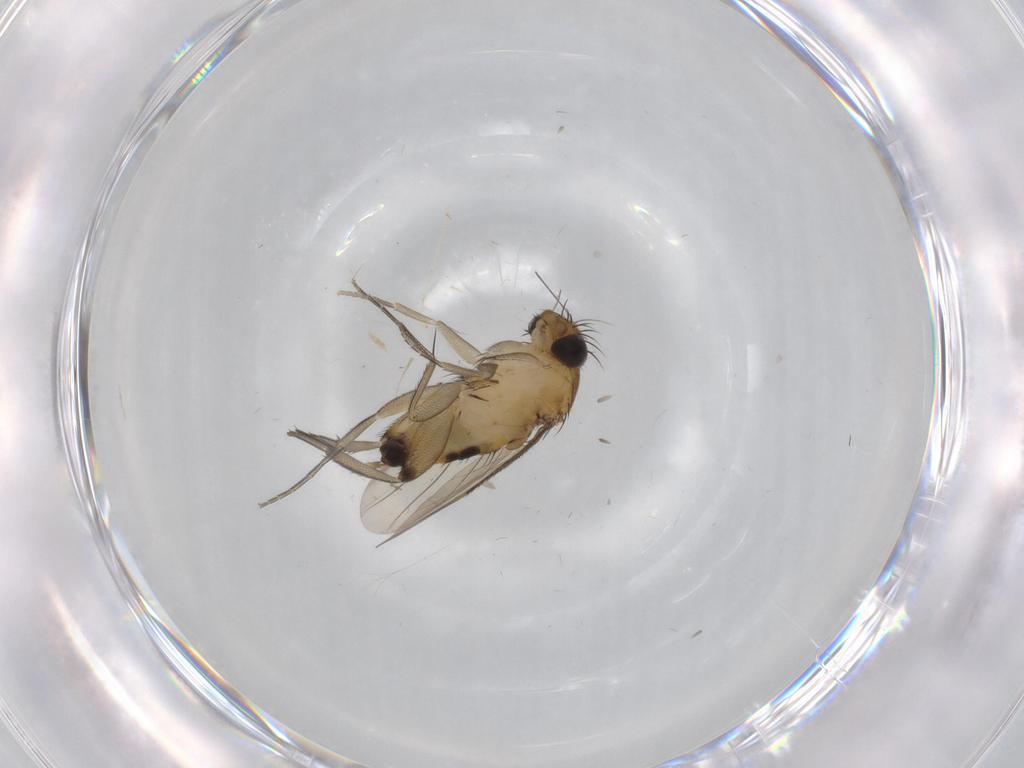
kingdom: Animalia
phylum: Arthropoda
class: Insecta
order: Diptera
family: Phoridae
